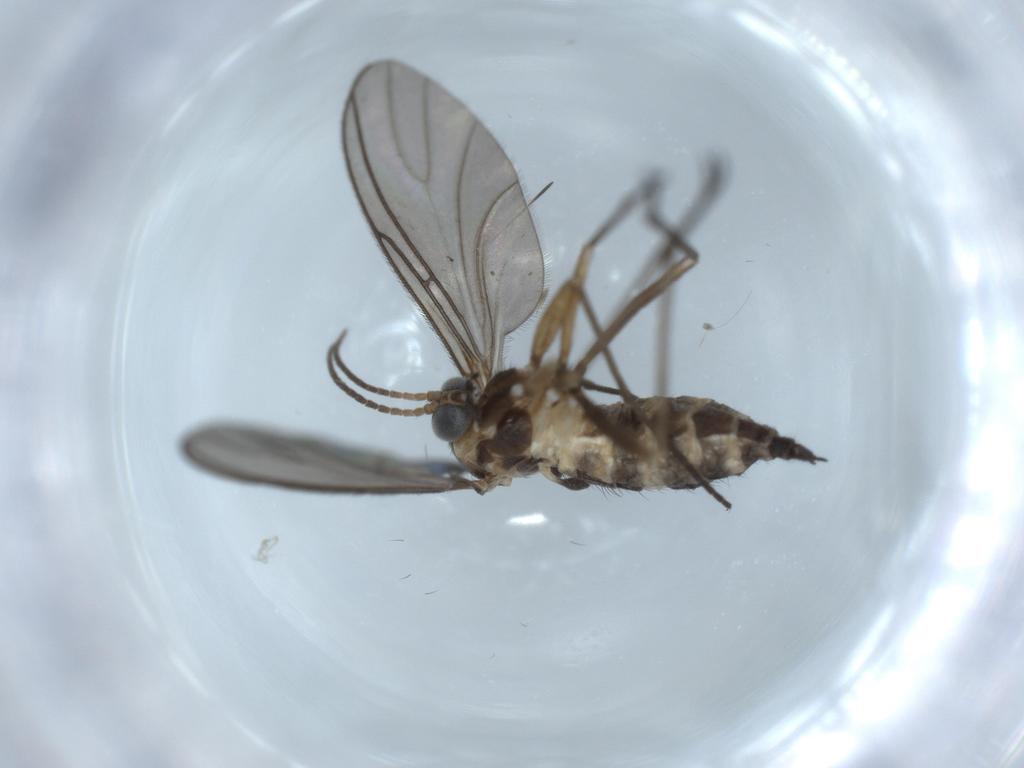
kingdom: Animalia
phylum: Arthropoda
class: Insecta
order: Diptera
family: Sciaridae
